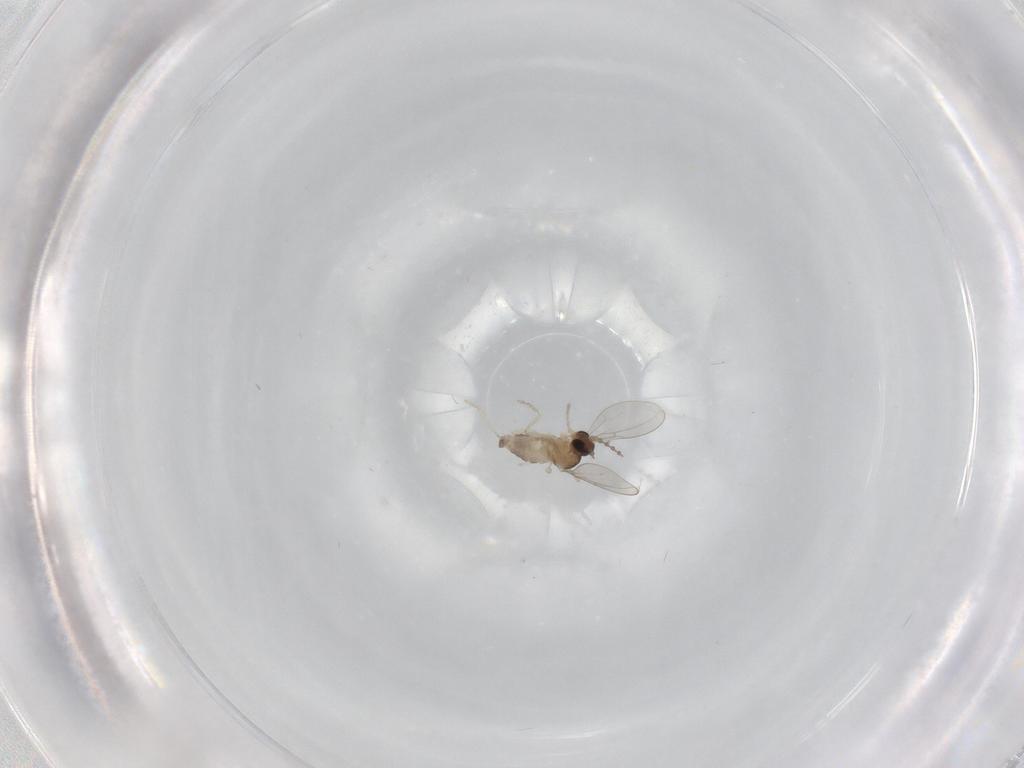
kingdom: Animalia
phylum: Arthropoda
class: Insecta
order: Diptera
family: Cecidomyiidae
